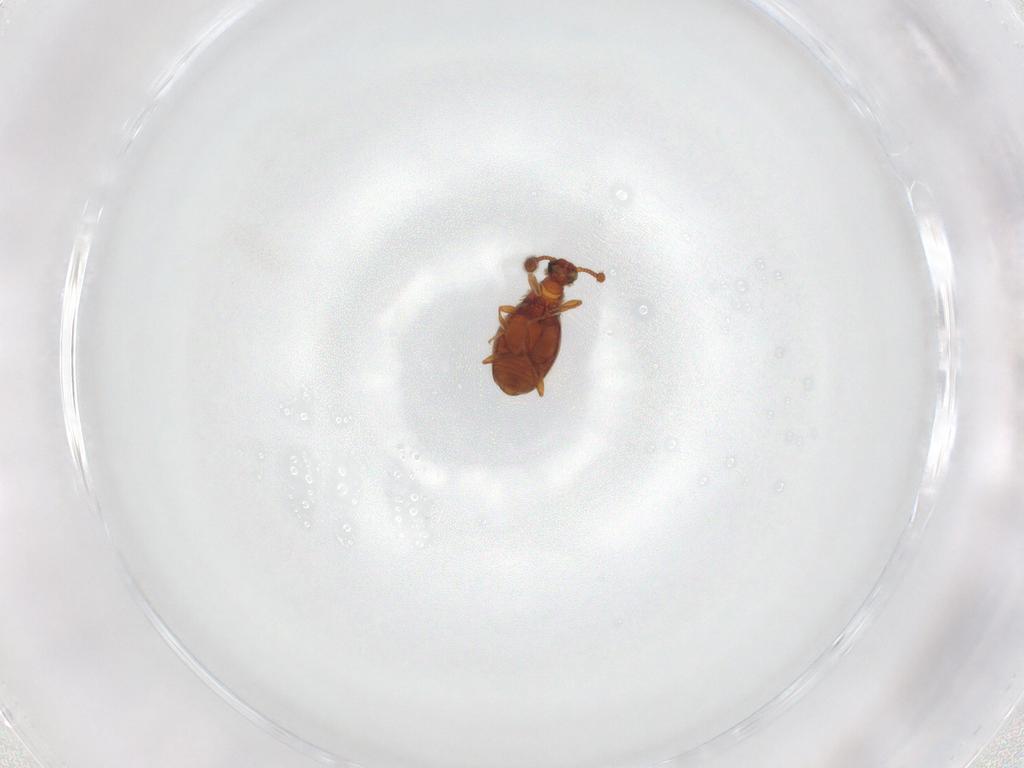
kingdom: Animalia
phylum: Arthropoda
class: Insecta
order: Coleoptera
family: Staphylinidae
